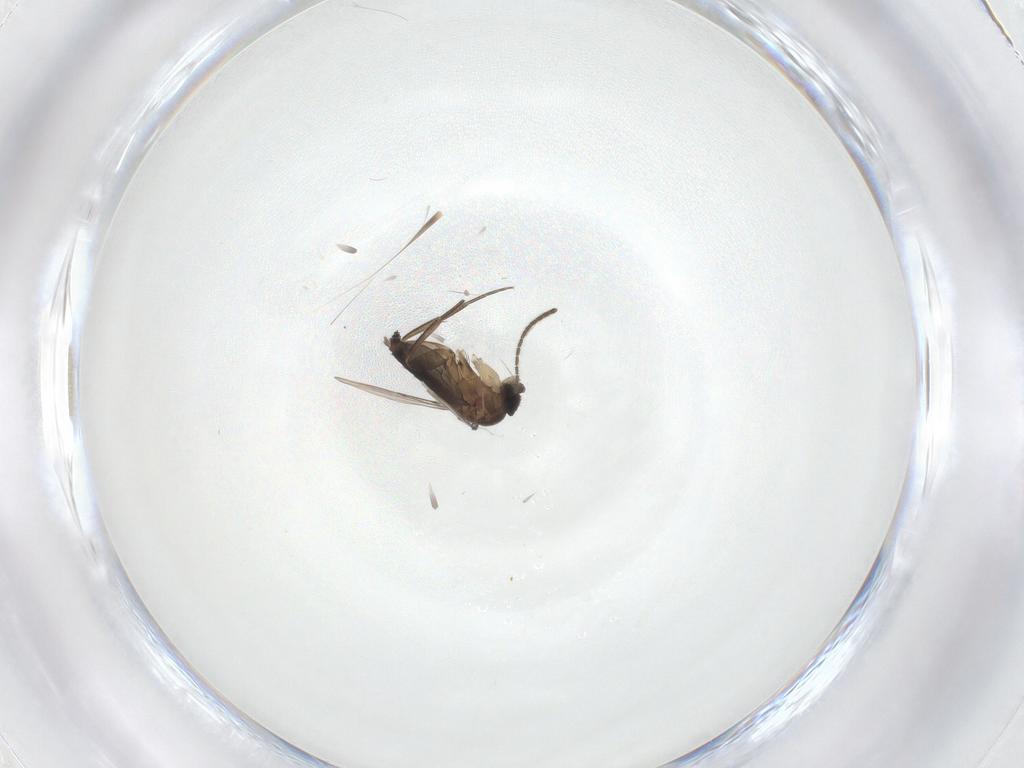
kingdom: Animalia
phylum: Arthropoda
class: Insecta
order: Diptera
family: Phoridae
